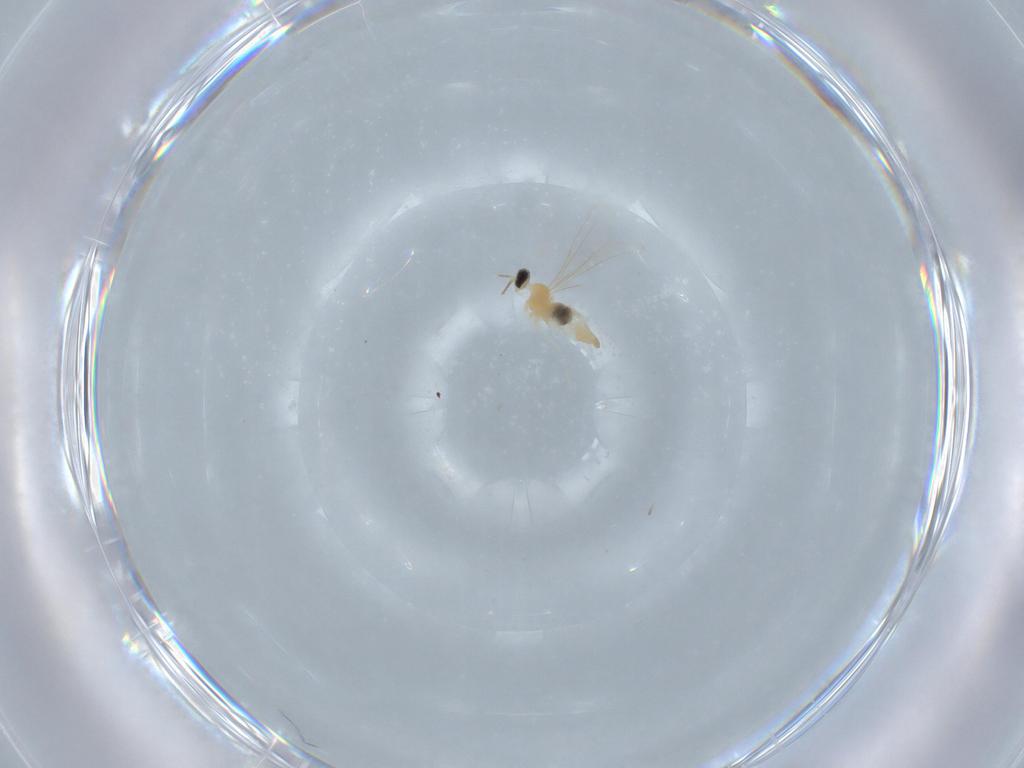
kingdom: Animalia
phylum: Arthropoda
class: Insecta
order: Diptera
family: Cecidomyiidae
